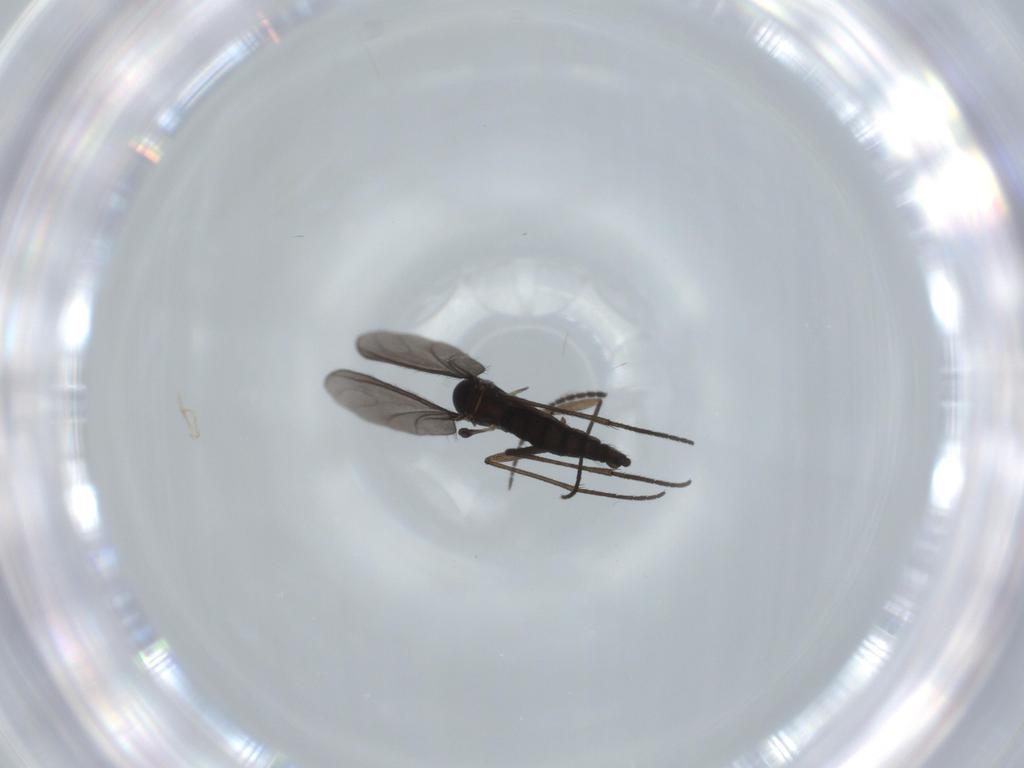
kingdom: Animalia
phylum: Arthropoda
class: Insecta
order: Diptera
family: Sciaridae
